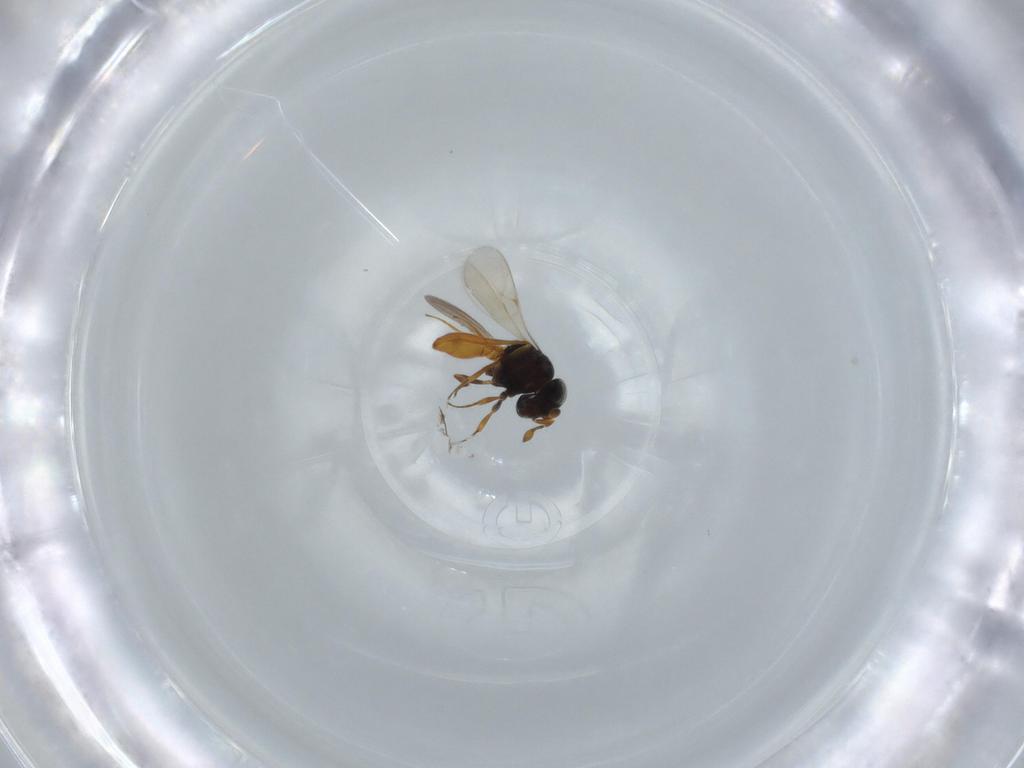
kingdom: Animalia
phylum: Arthropoda
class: Insecta
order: Hymenoptera
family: Scelionidae
